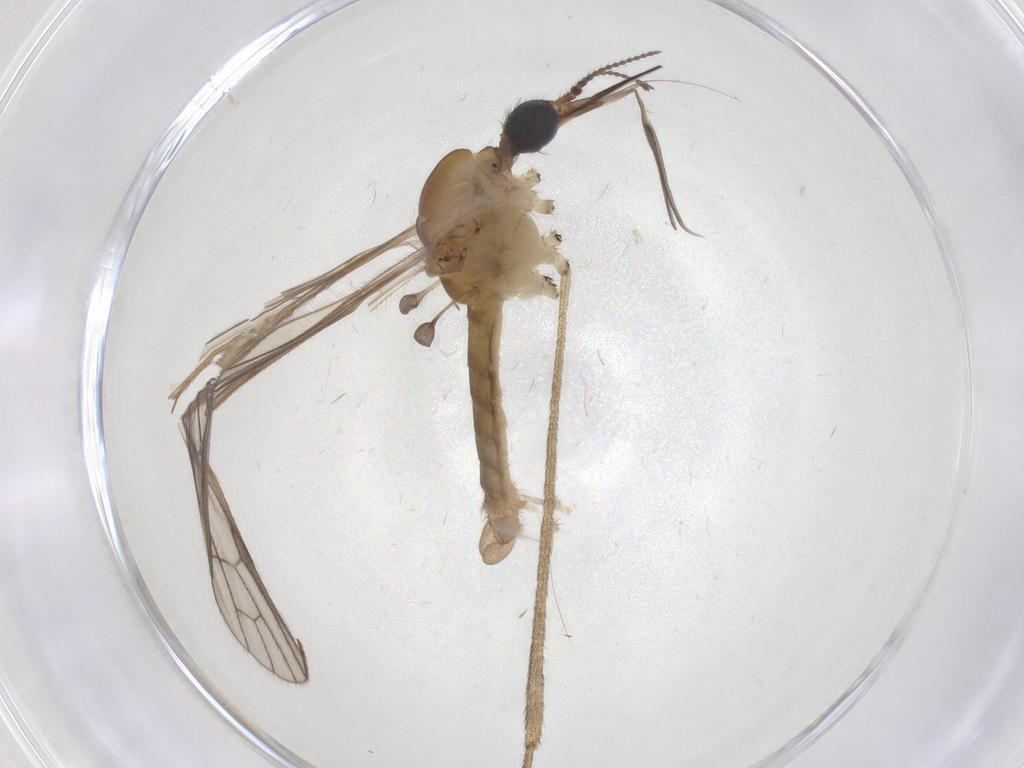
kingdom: Animalia
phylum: Arthropoda
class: Insecta
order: Diptera
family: Limoniidae
